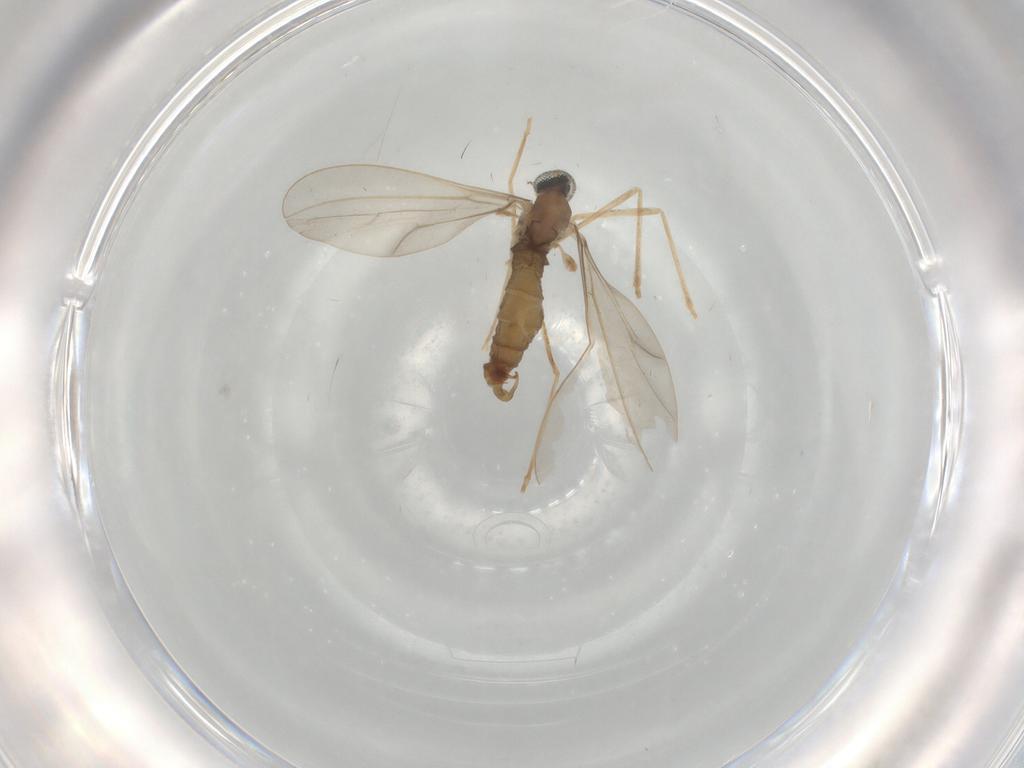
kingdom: Animalia
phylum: Arthropoda
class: Insecta
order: Diptera
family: Cecidomyiidae
